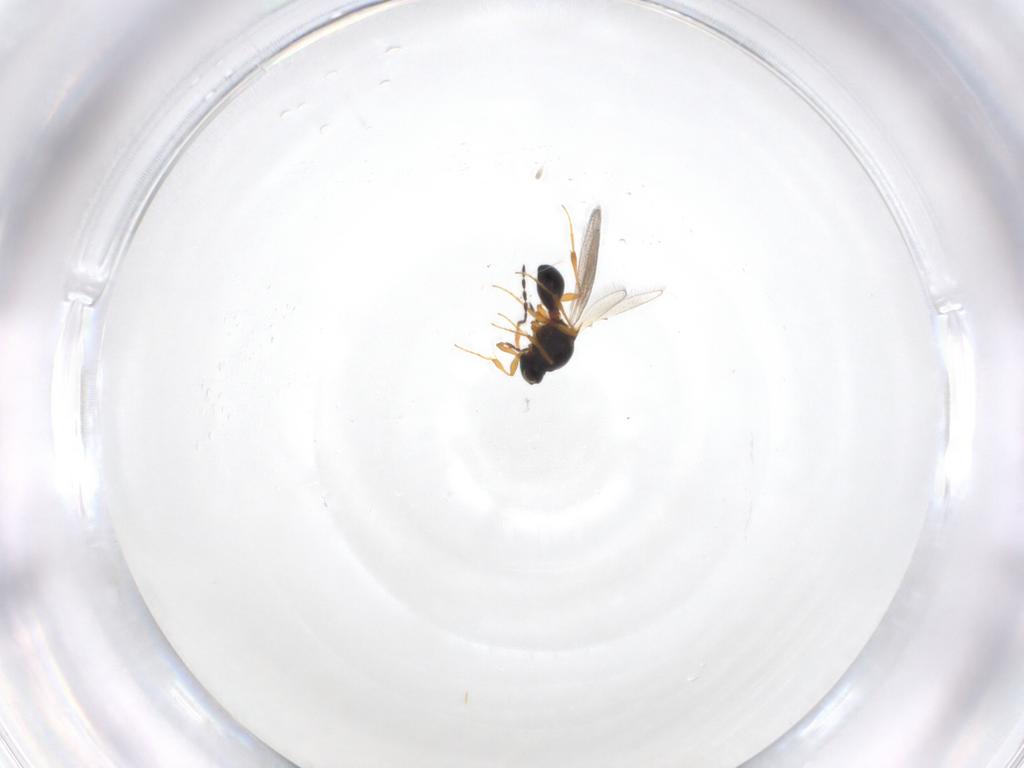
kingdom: Animalia
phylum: Arthropoda
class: Insecta
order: Hymenoptera
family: Platygastridae
